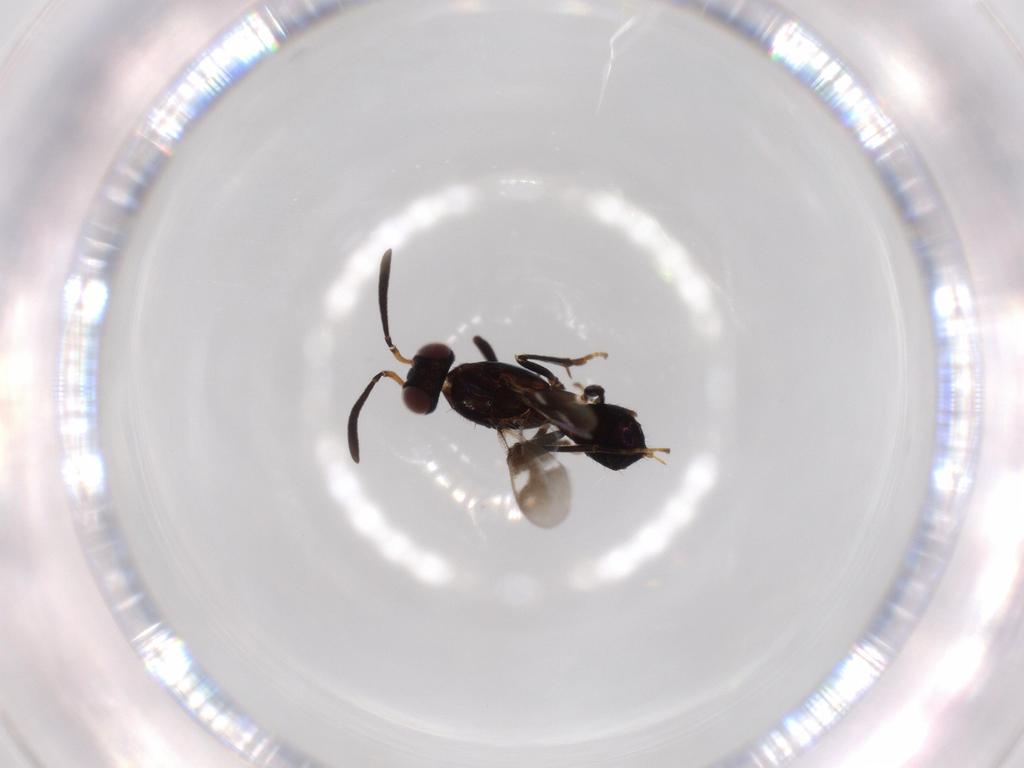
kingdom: Animalia
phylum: Arthropoda
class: Insecta
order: Hymenoptera
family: Eupelmidae
